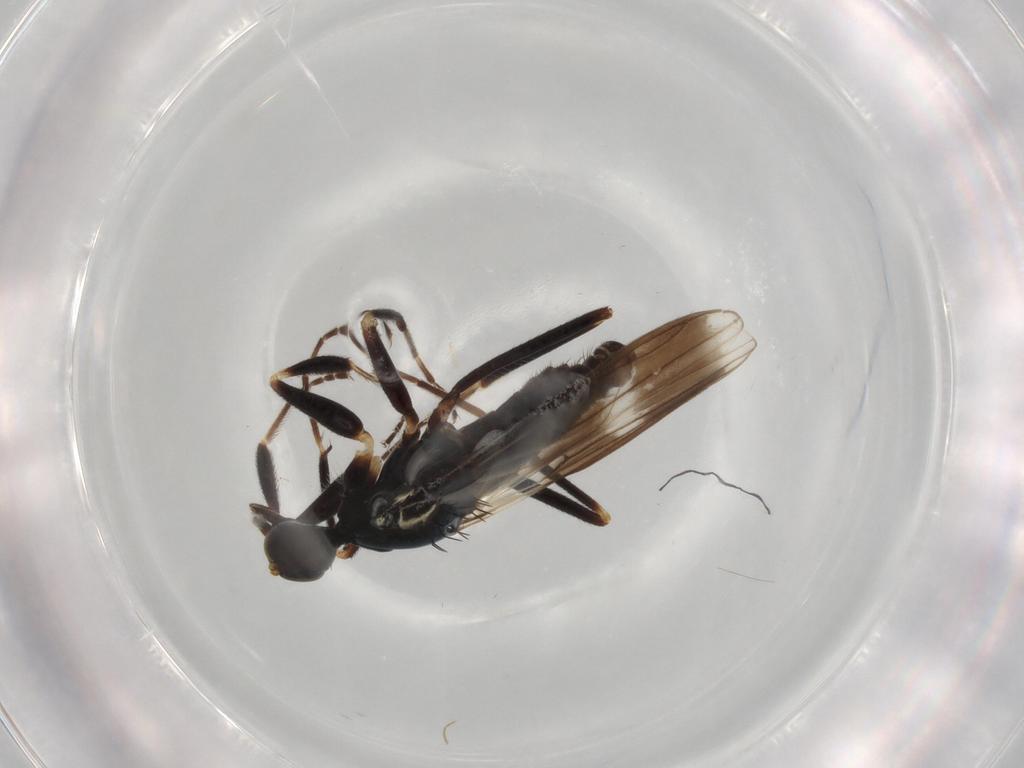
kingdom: Animalia
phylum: Arthropoda
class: Insecta
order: Diptera
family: Hybotidae
